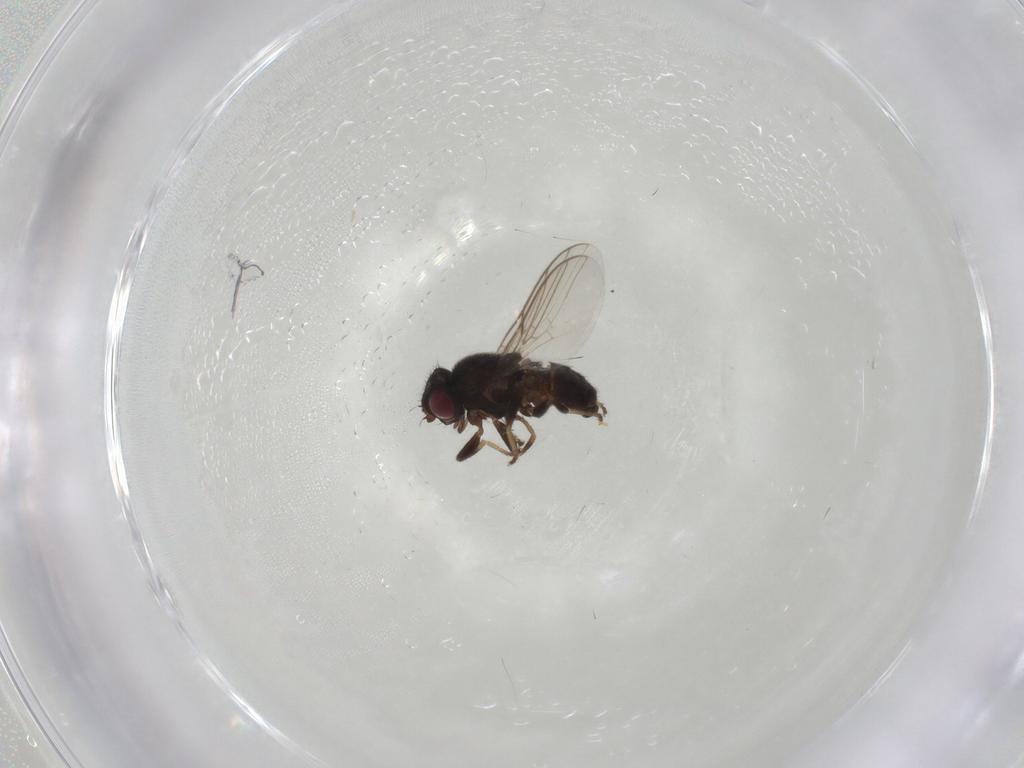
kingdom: Animalia
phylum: Arthropoda
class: Insecta
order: Diptera
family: Chloropidae
